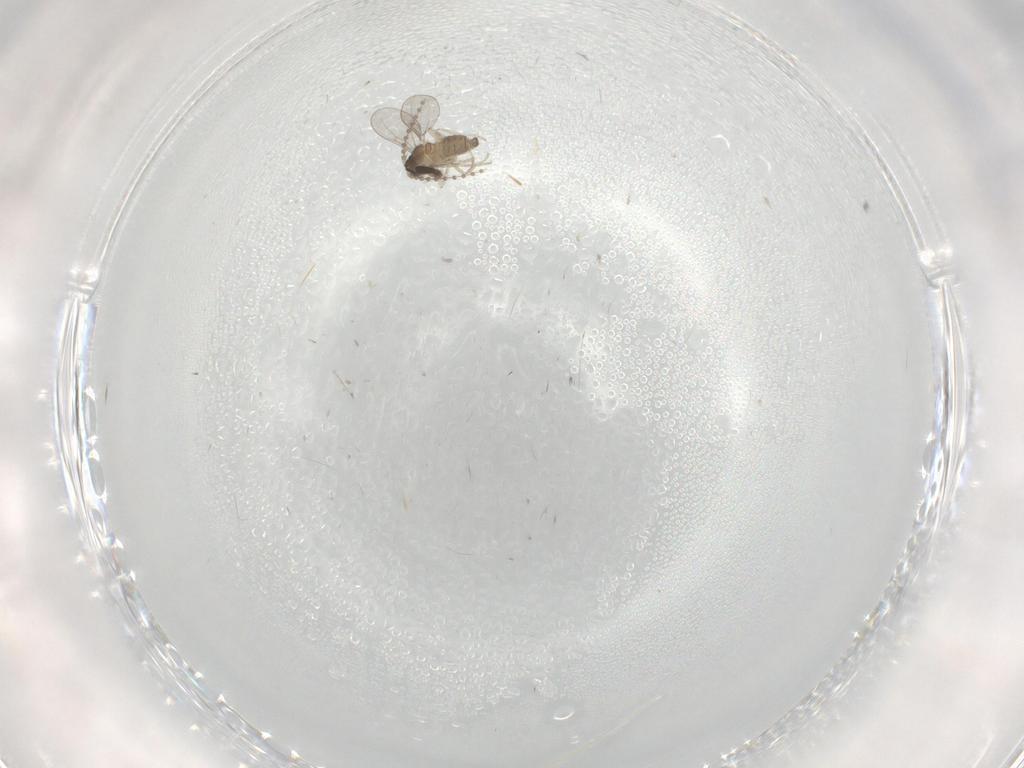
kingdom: Animalia
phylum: Arthropoda
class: Insecta
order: Diptera
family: Cecidomyiidae
